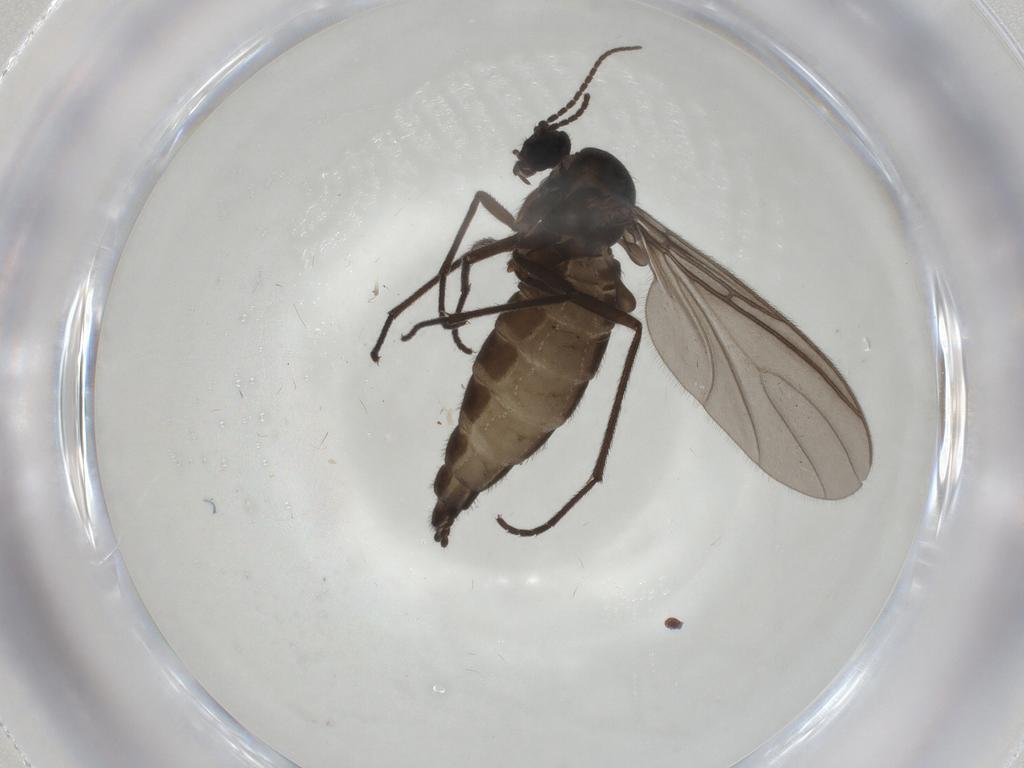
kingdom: Animalia
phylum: Arthropoda
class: Insecta
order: Diptera
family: Chironomidae
